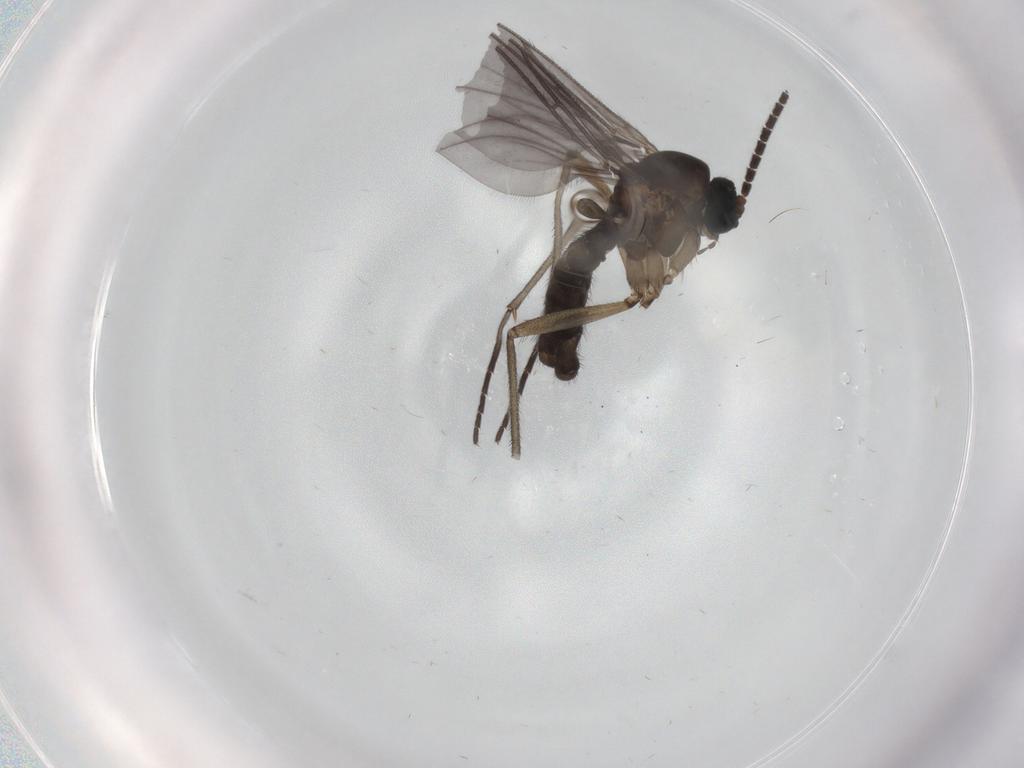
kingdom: Animalia
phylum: Arthropoda
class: Insecta
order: Diptera
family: Sciaridae
